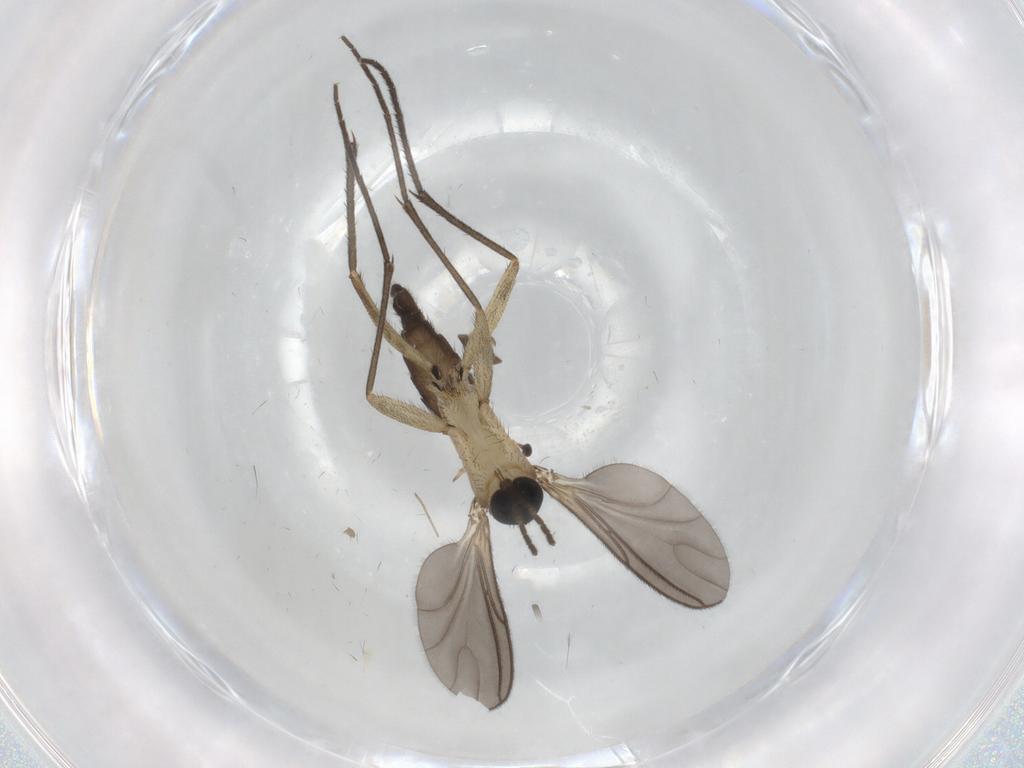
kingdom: Animalia
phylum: Arthropoda
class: Insecta
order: Diptera
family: Sciaridae
